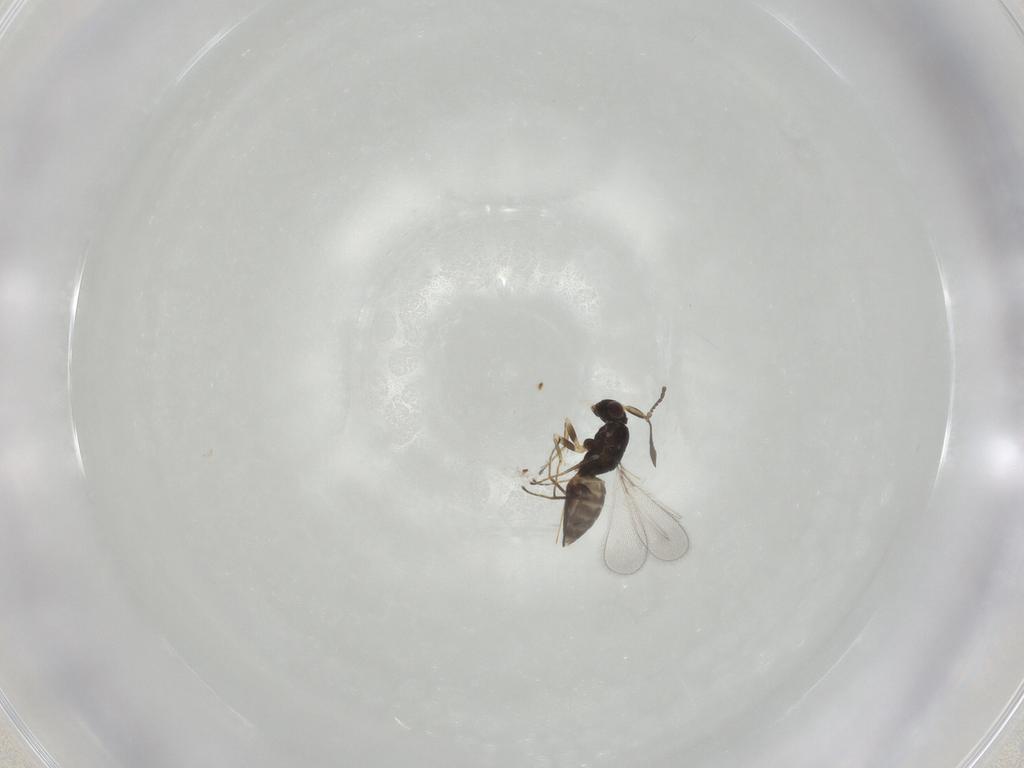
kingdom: Animalia
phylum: Arthropoda
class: Insecta
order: Hymenoptera
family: Mymaridae
